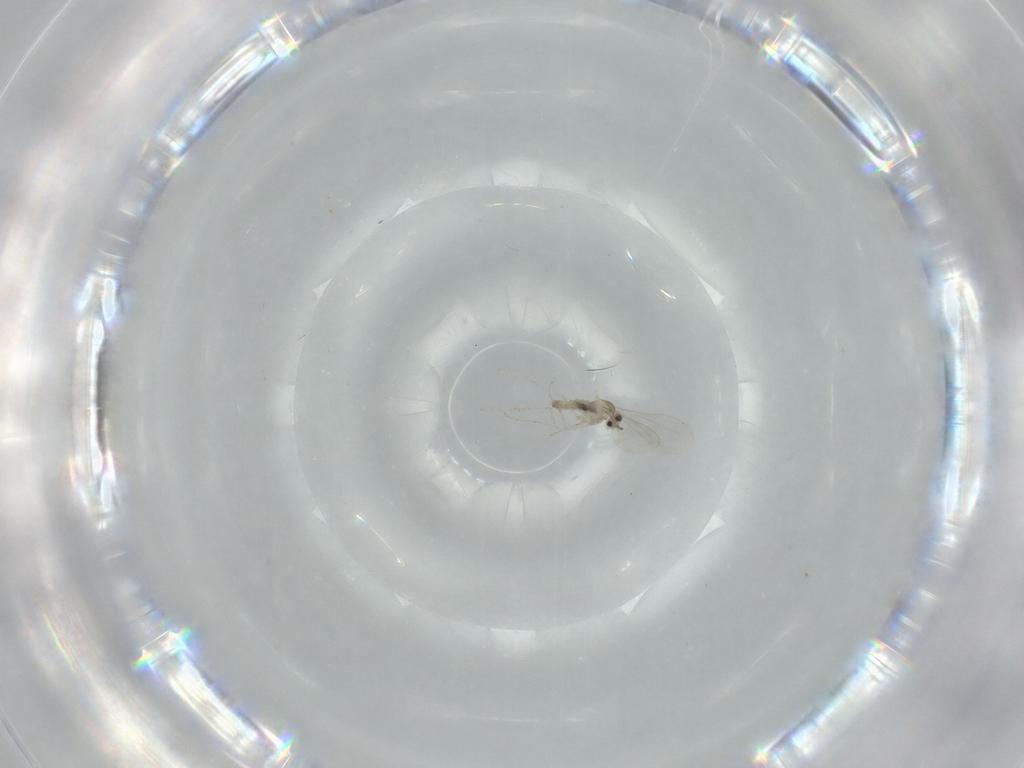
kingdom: Animalia
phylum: Arthropoda
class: Insecta
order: Diptera
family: Cecidomyiidae
